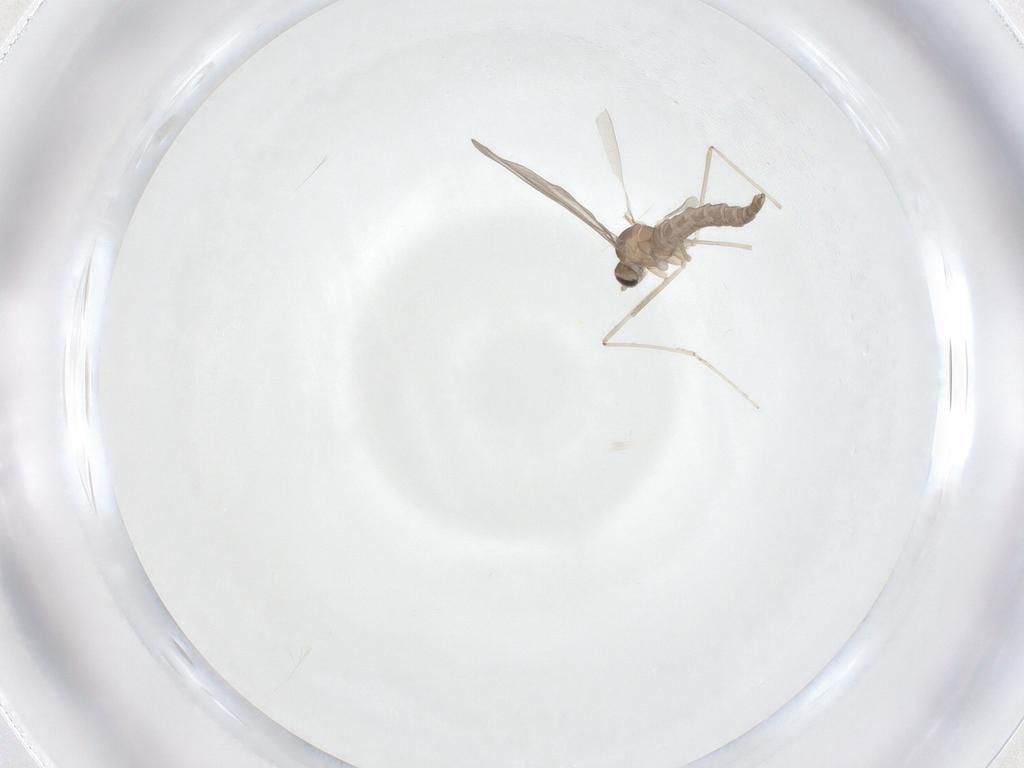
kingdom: Animalia
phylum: Arthropoda
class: Insecta
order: Diptera
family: Cecidomyiidae
